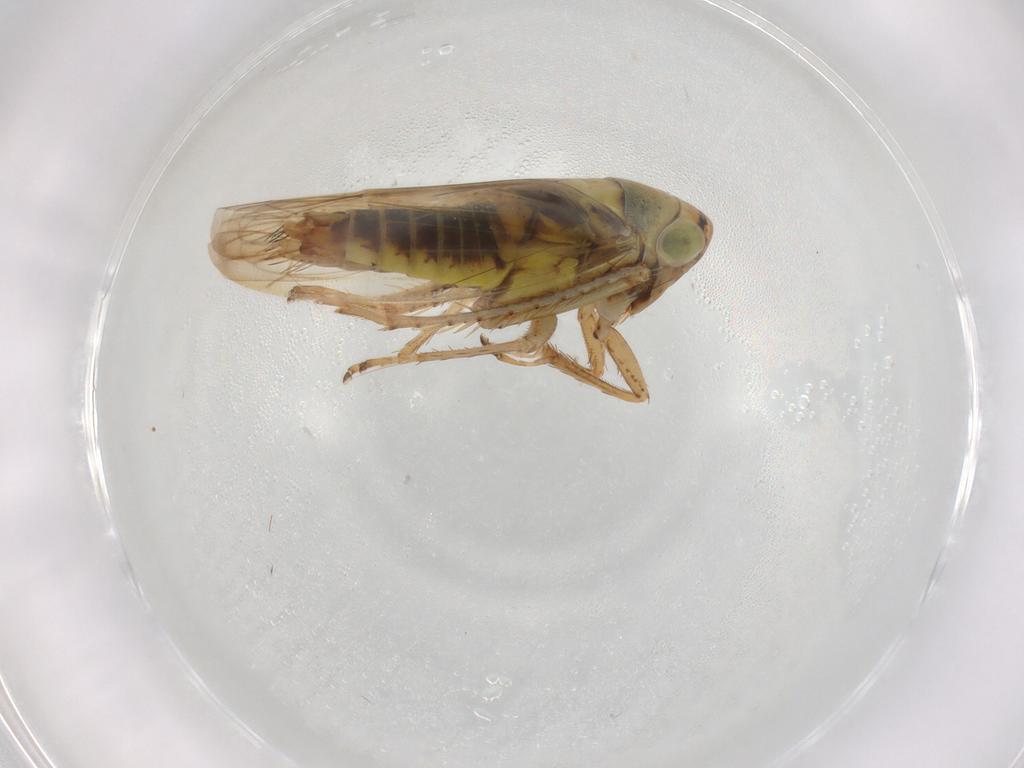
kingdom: Animalia
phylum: Arthropoda
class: Insecta
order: Hemiptera
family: Cicadellidae
